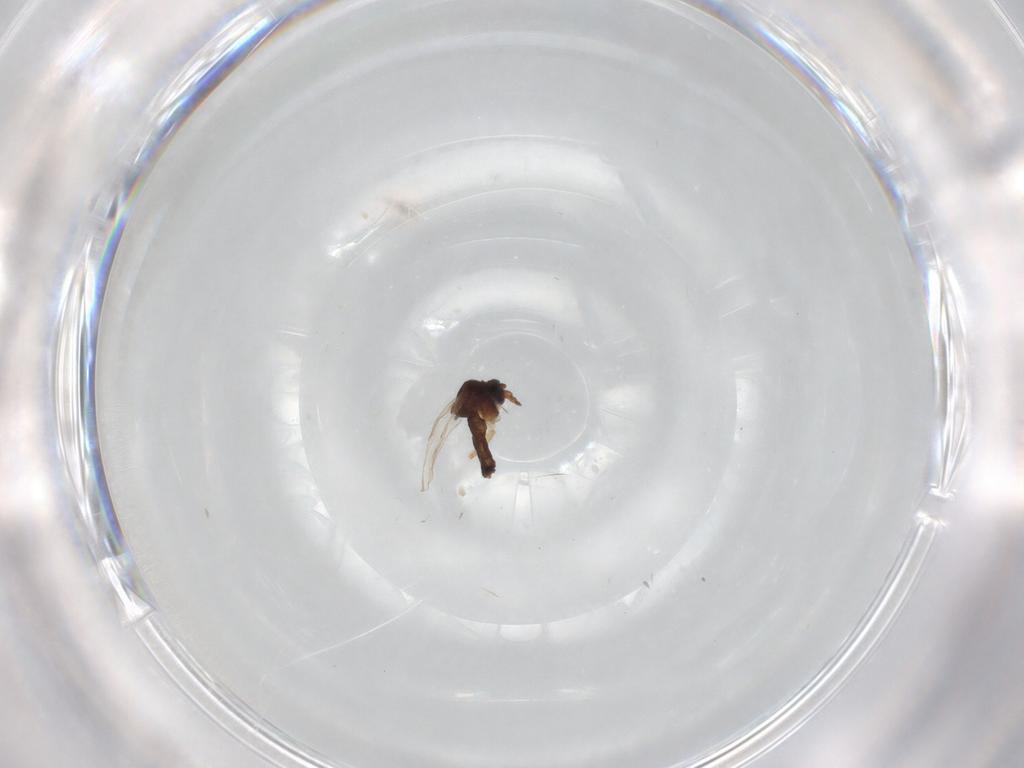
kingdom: Animalia
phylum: Arthropoda
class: Insecta
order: Diptera
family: Ceratopogonidae
